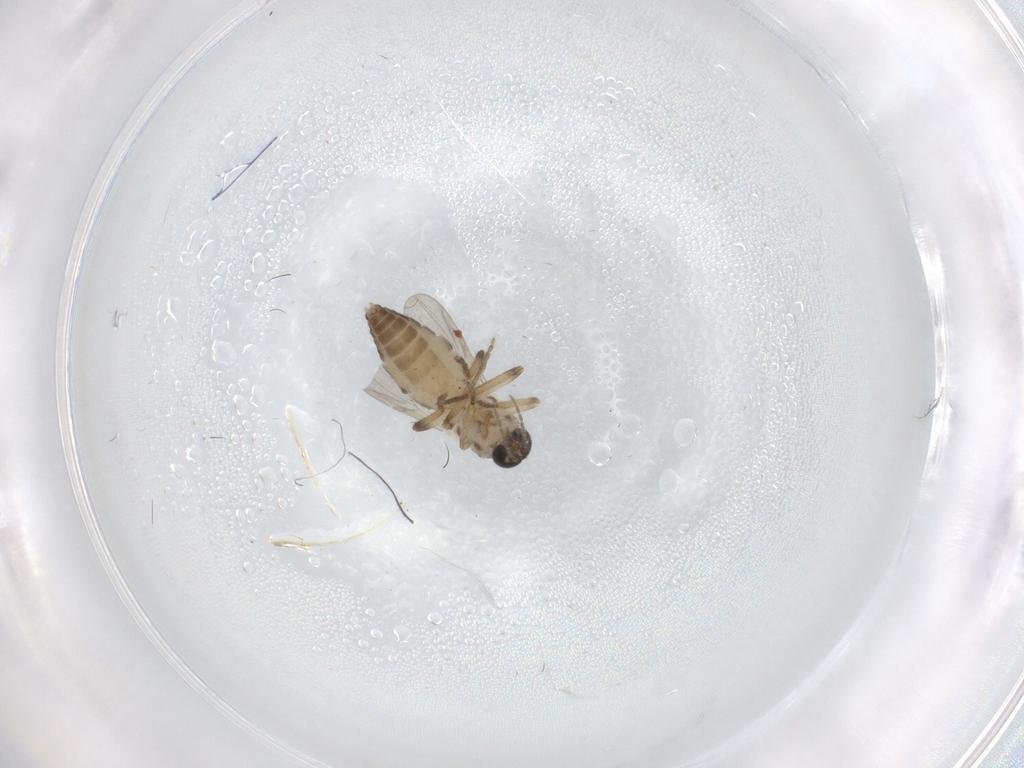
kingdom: Animalia
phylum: Arthropoda
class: Insecta
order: Diptera
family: Ceratopogonidae
